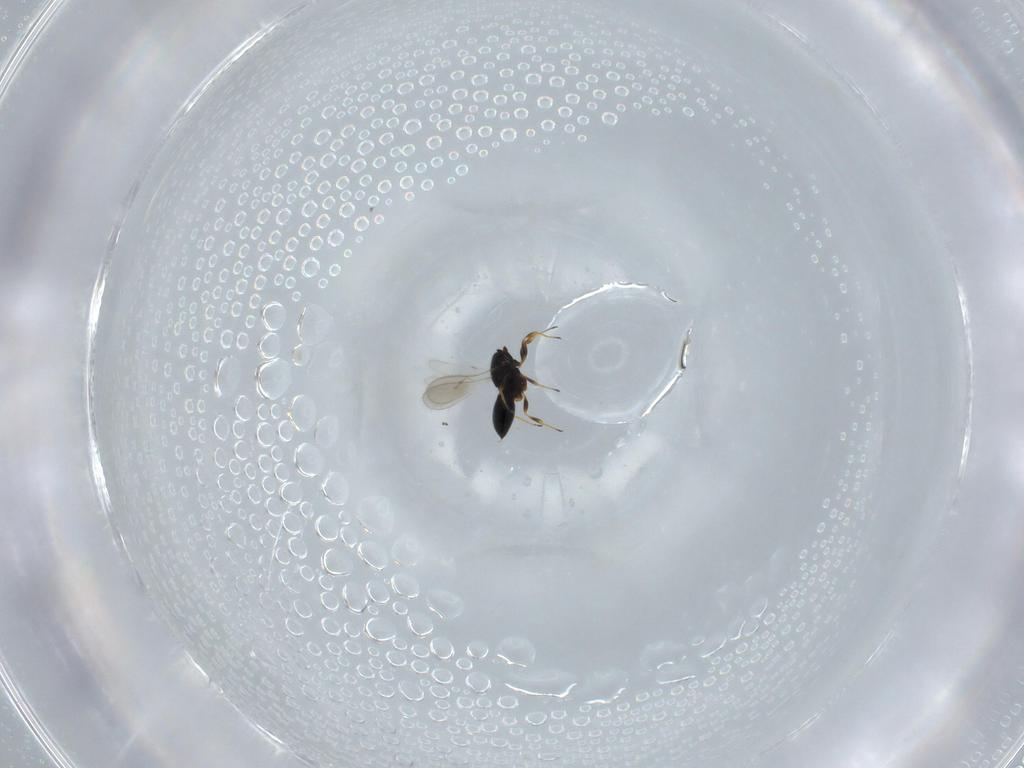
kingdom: Animalia
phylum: Arthropoda
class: Insecta
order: Hymenoptera
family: Scelionidae
